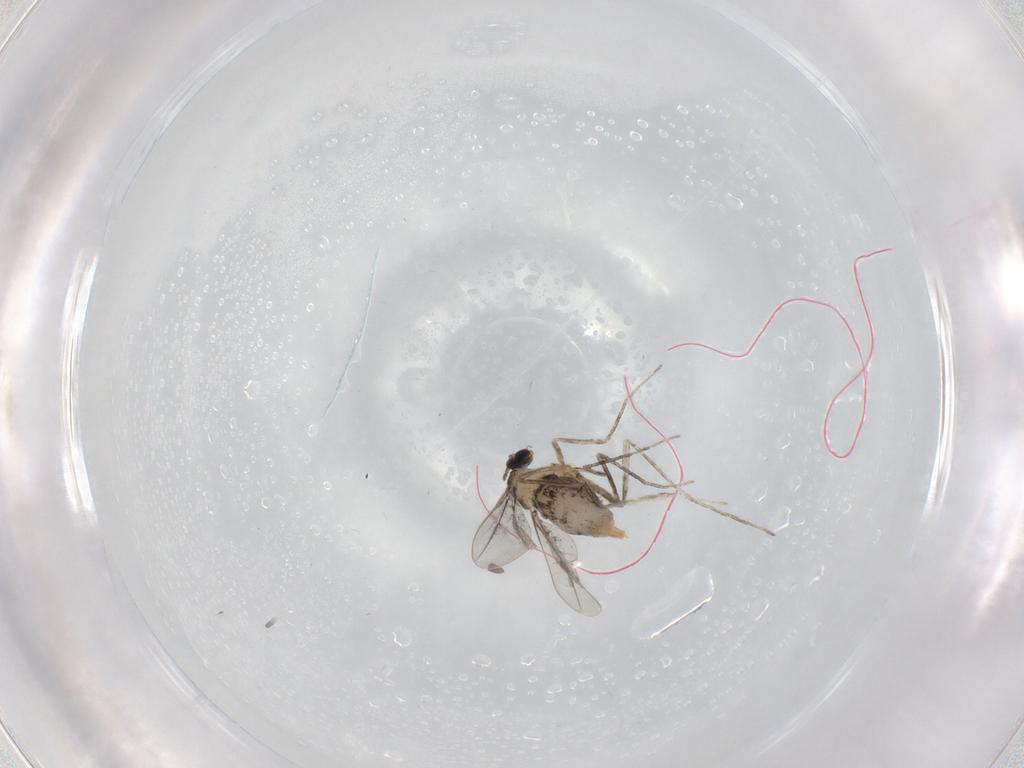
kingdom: Animalia
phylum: Arthropoda
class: Insecta
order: Diptera
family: Cecidomyiidae
